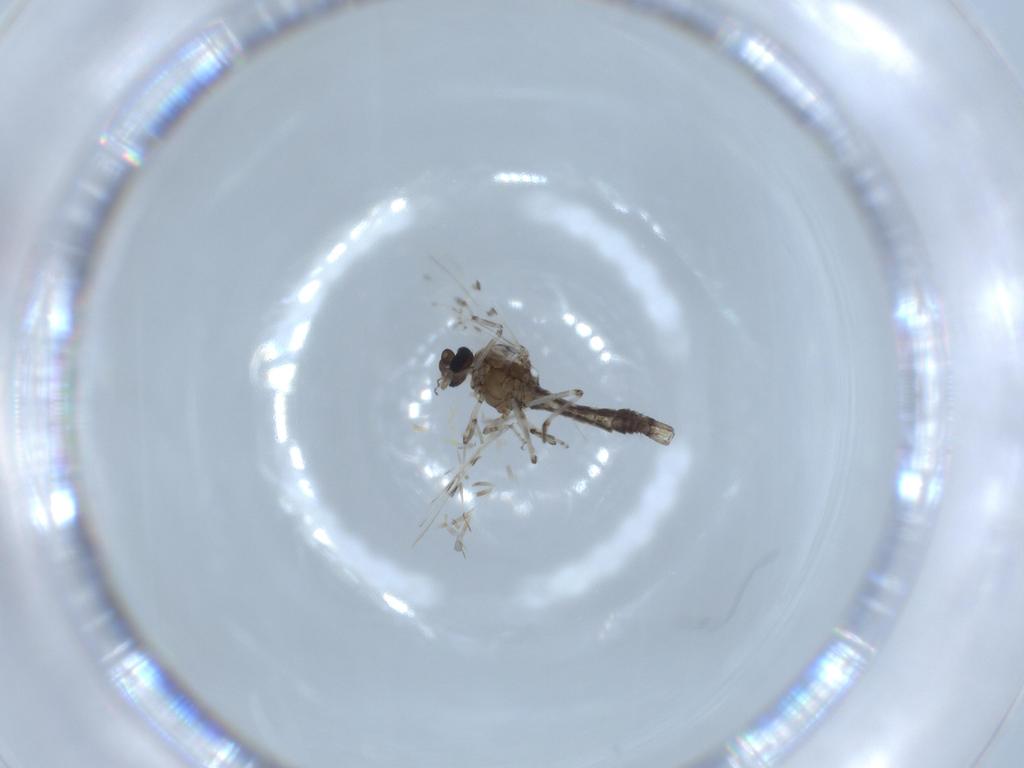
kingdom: Animalia
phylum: Arthropoda
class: Insecta
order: Diptera
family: Ceratopogonidae
